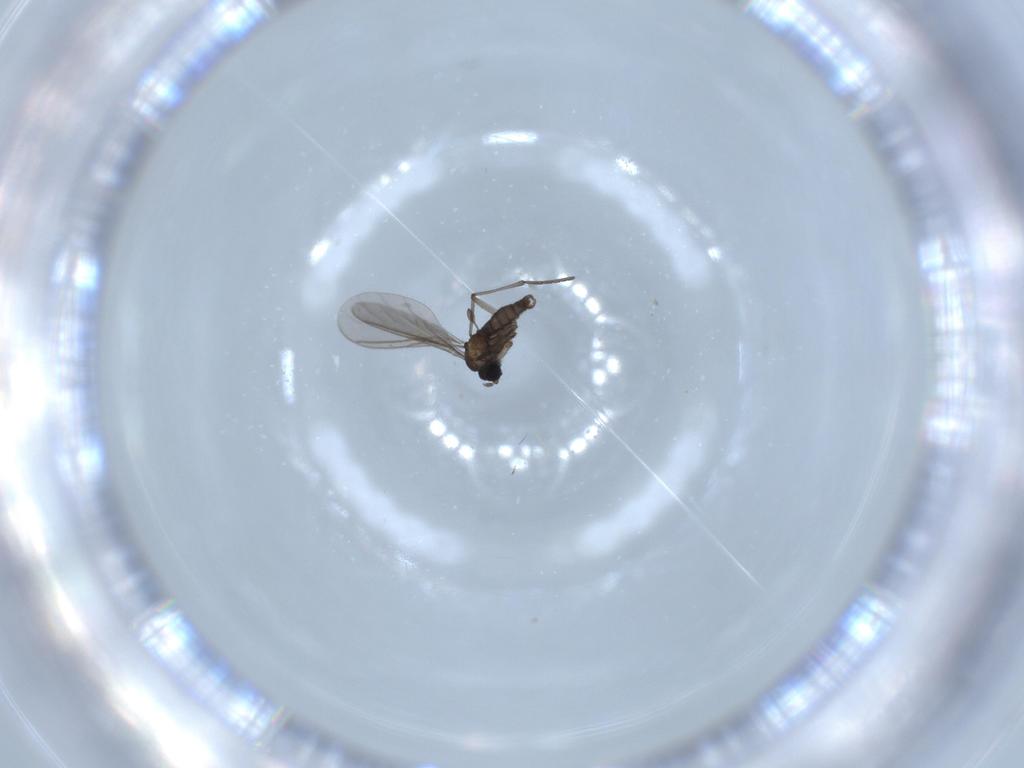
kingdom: Animalia
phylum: Arthropoda
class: Insecta
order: Diptera
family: Sciaridae
